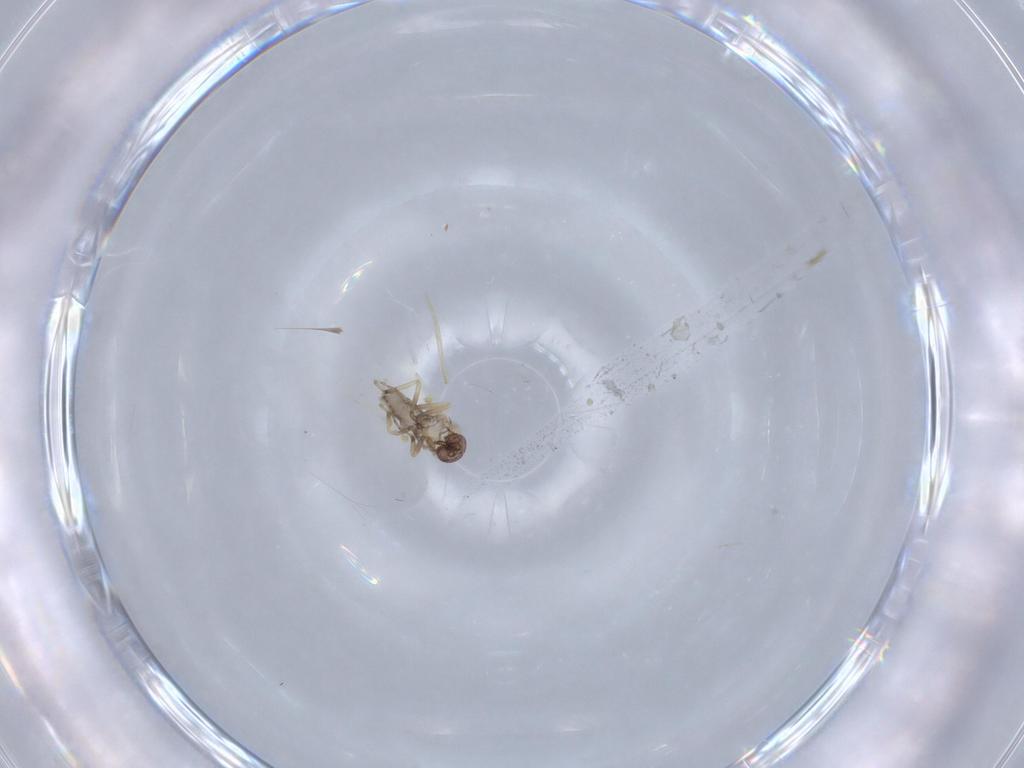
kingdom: Animalia
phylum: Arthropoda
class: Insecta
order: Diptera
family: Ceratopogonidae
